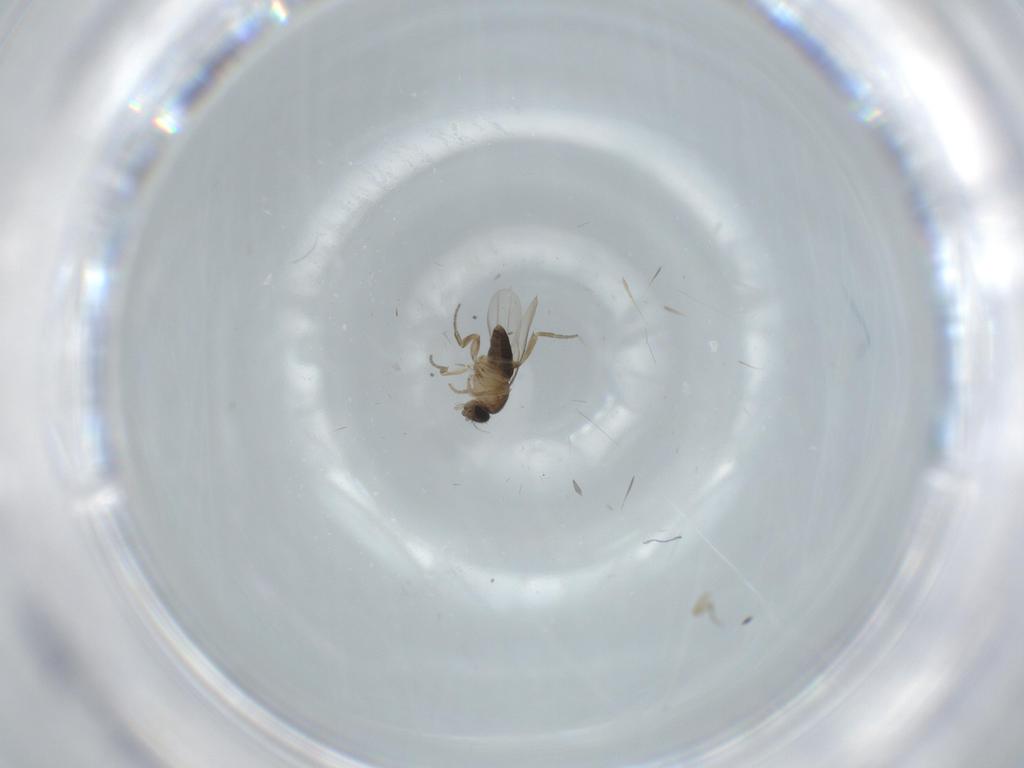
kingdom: Animalia
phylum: Arthropoda
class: Insecta
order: Diptera
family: Phoridae
